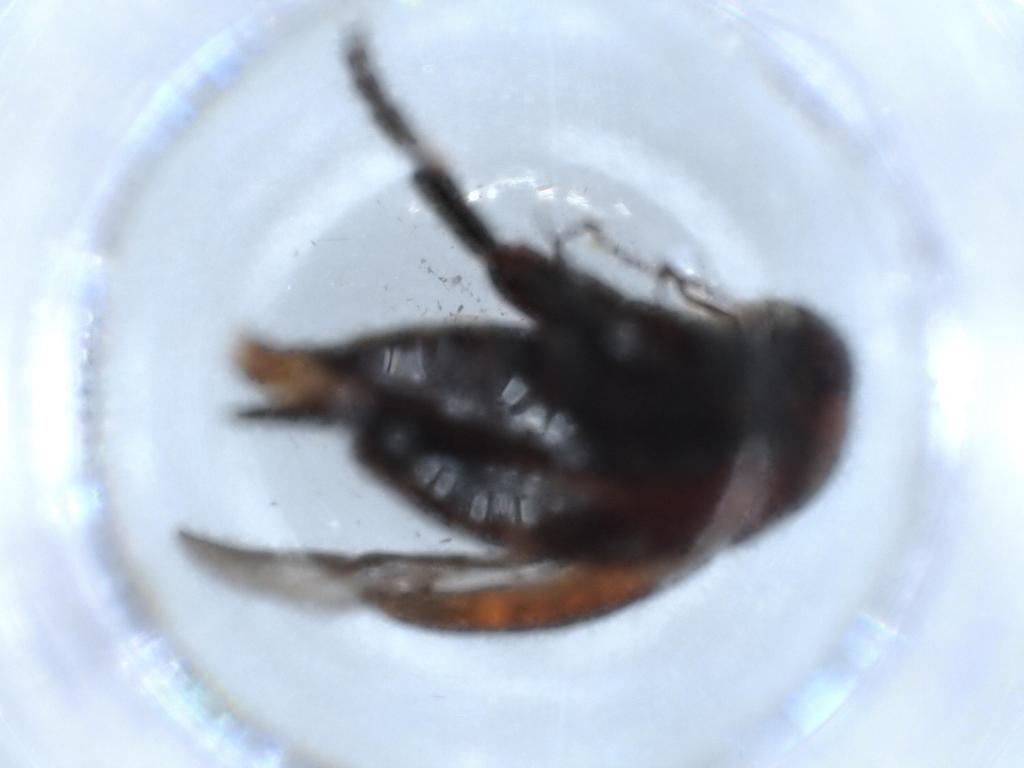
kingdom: Animalia
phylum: Arthropoda
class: Insecta
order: Coleoptera
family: Mordellidae
